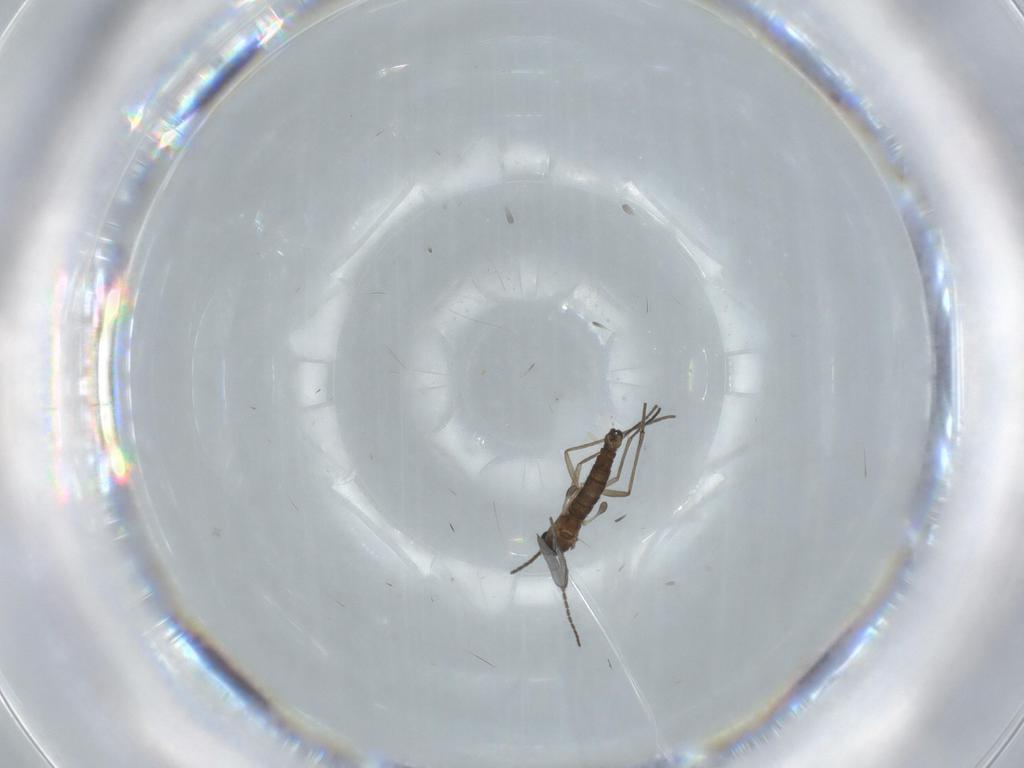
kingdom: Animalia
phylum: Arthropoda
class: Insecta
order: Diptera
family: Sciaridae
